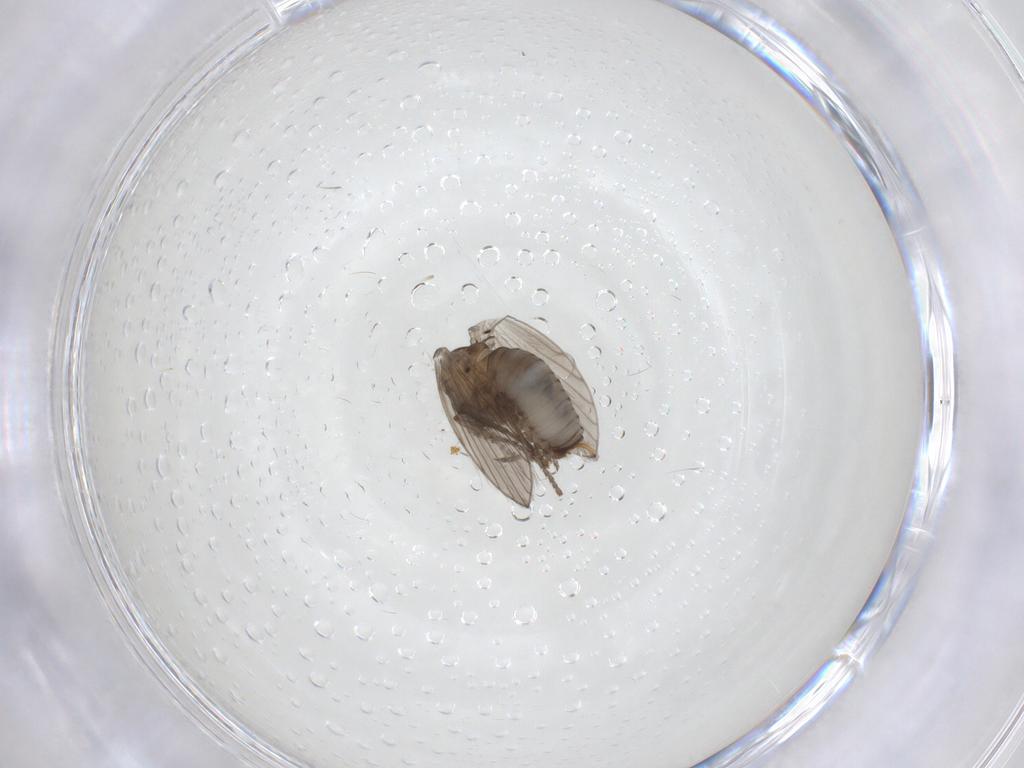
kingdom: Animalia
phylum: Arthropoda
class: Insecta
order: Diptera
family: Psychodidae
